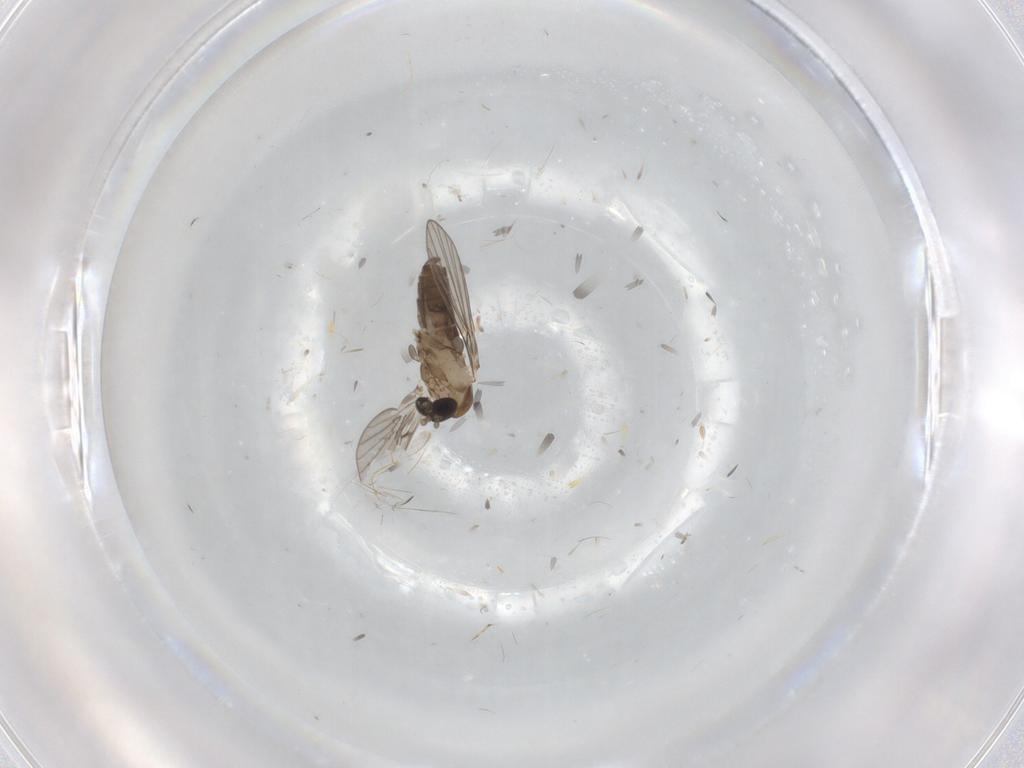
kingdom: Animalia
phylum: Arthropoda
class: Insecta
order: Diptera
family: Psychodidae
